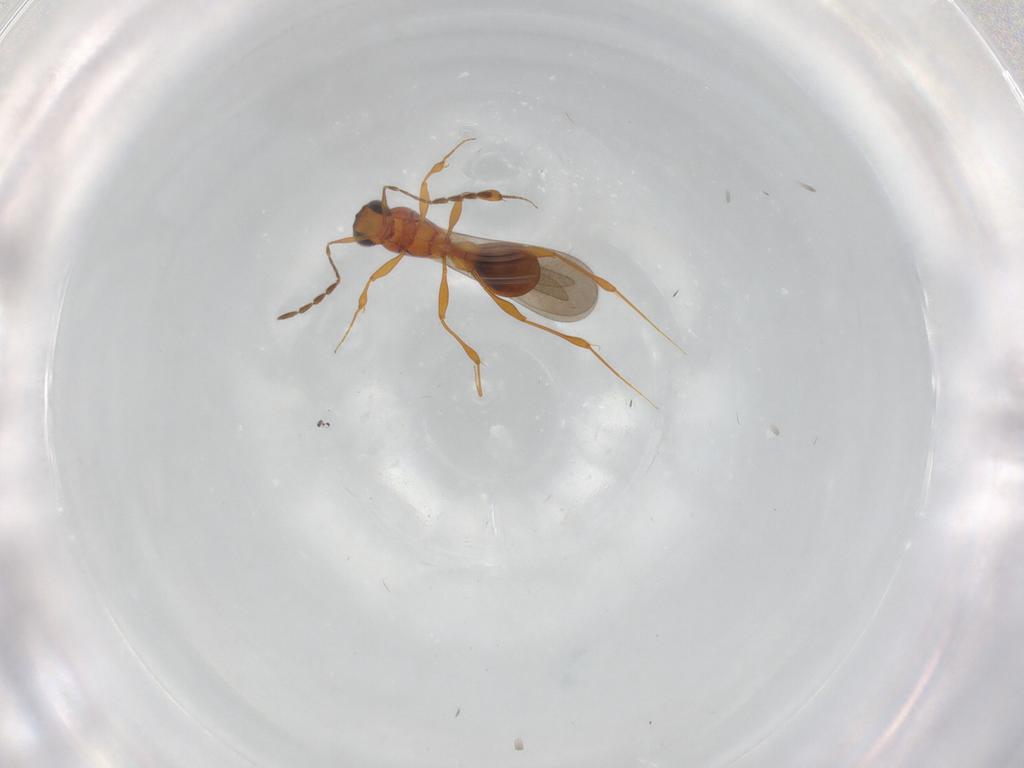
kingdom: Animalia
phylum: Arthropoda
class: Insecta
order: Hymenoptera
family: Platygastridae
